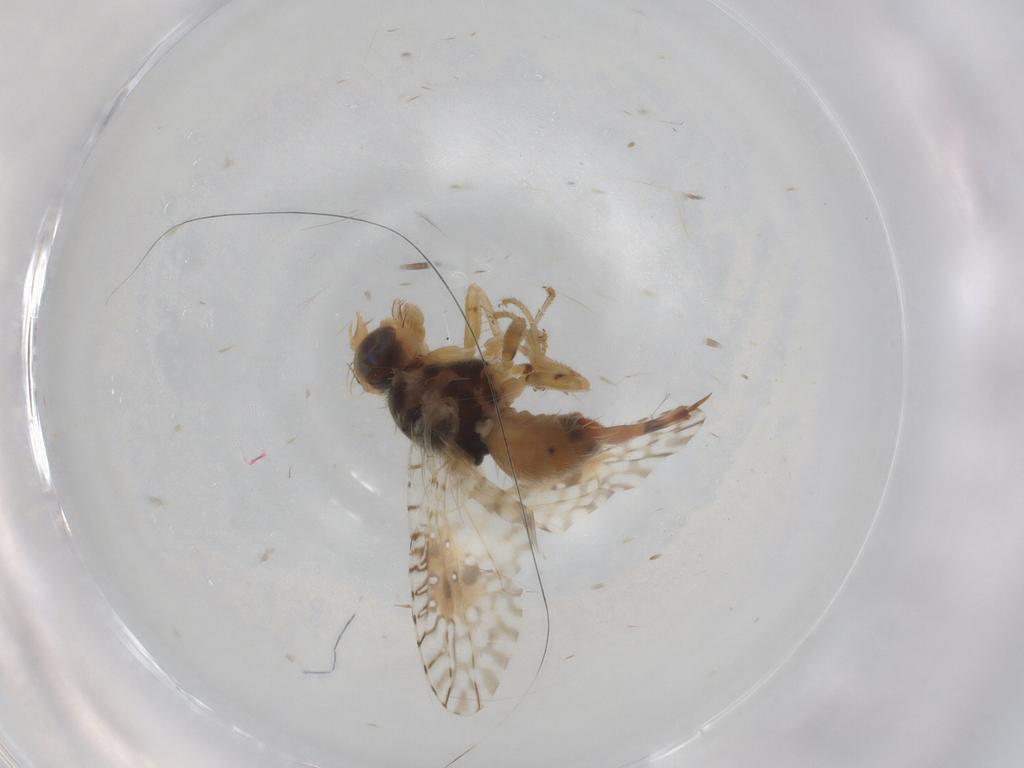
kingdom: Animalia
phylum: Arthropoda
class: Insecta
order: Diptera
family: Tephritidae
